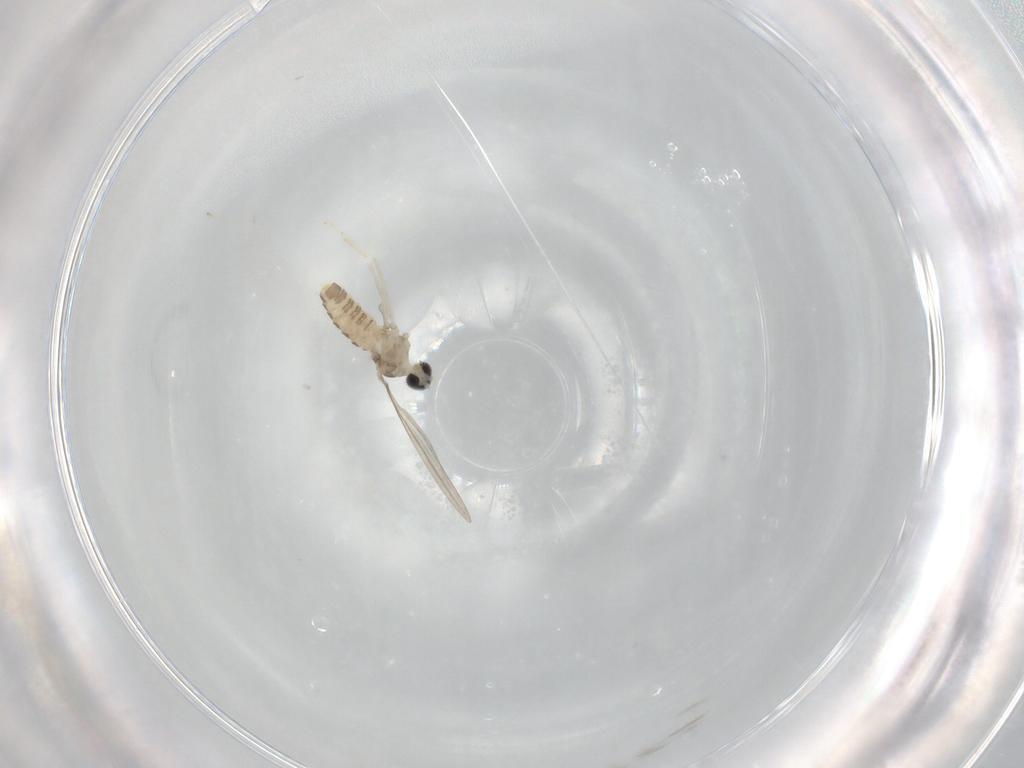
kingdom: Animalia
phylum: Arthropoda
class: Insecta
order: Diptera
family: Cecidomyiidae
